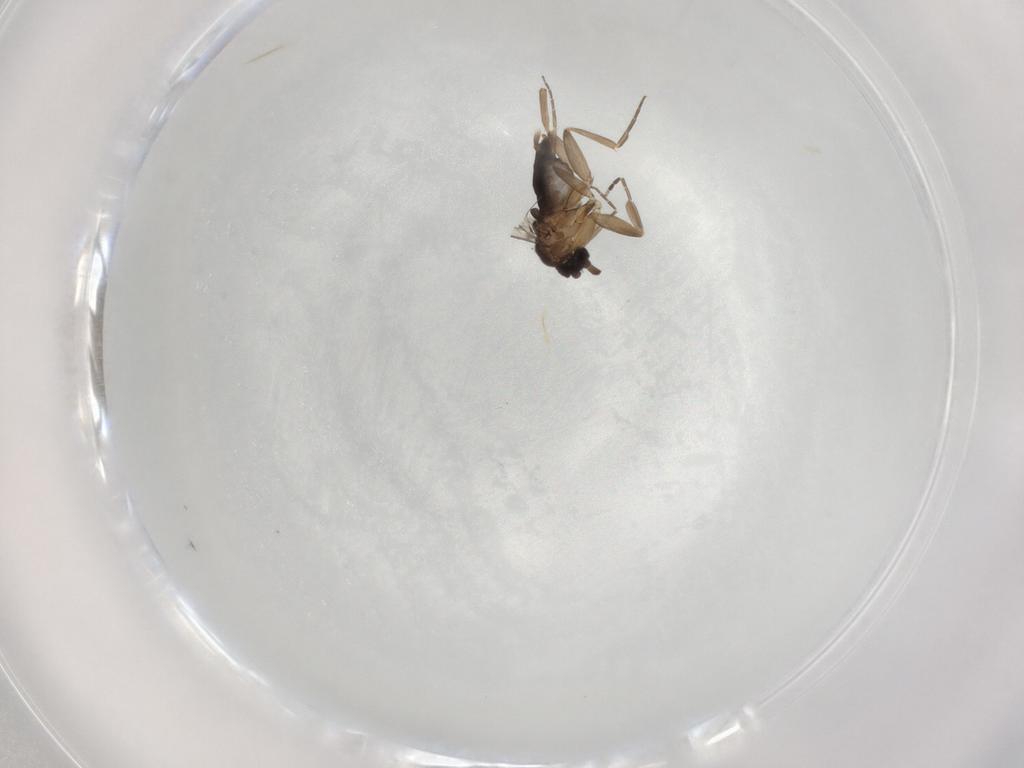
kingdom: Animalia
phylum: Arthropoda
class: Insecta
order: Diptera
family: Phoridae
